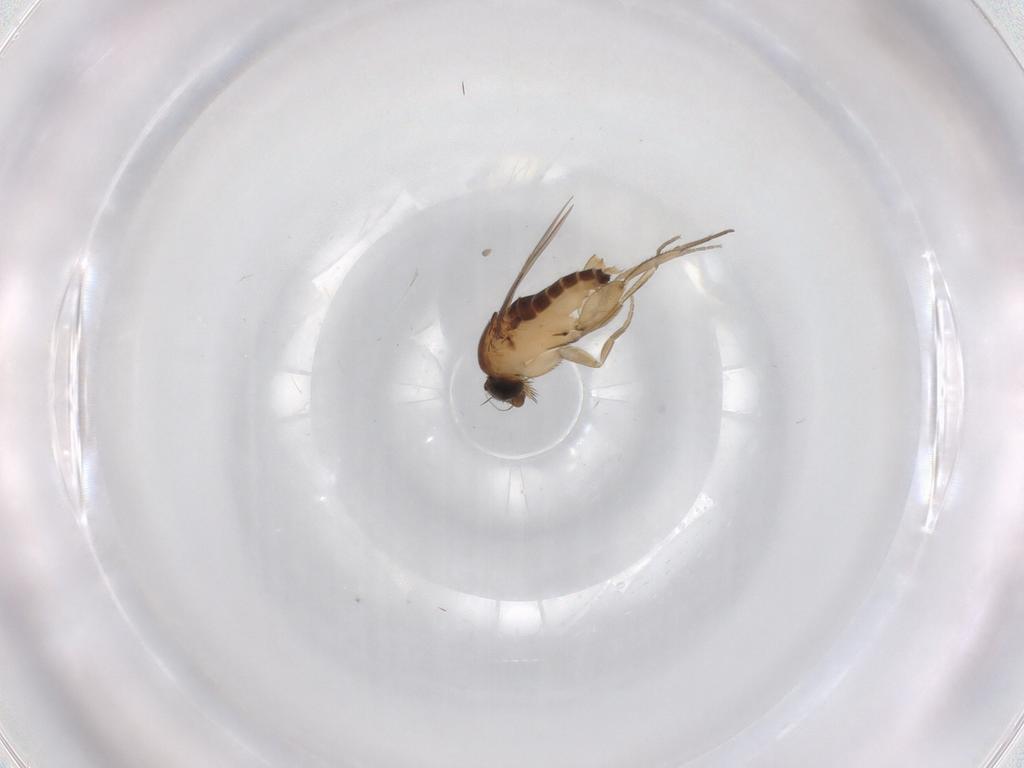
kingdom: Animalia
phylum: Arthropoda
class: Insecta
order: Diptera
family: Phoridae
